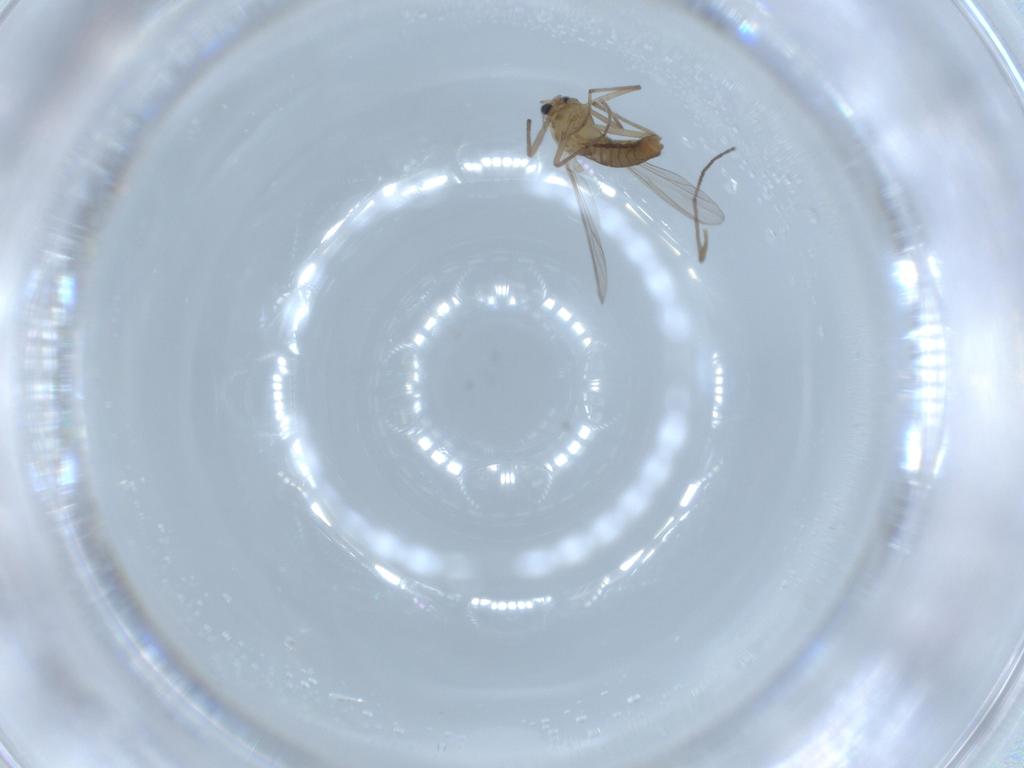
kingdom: Animalia
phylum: Arthropoda
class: Insecta
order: Diptera
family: Chironomidae
